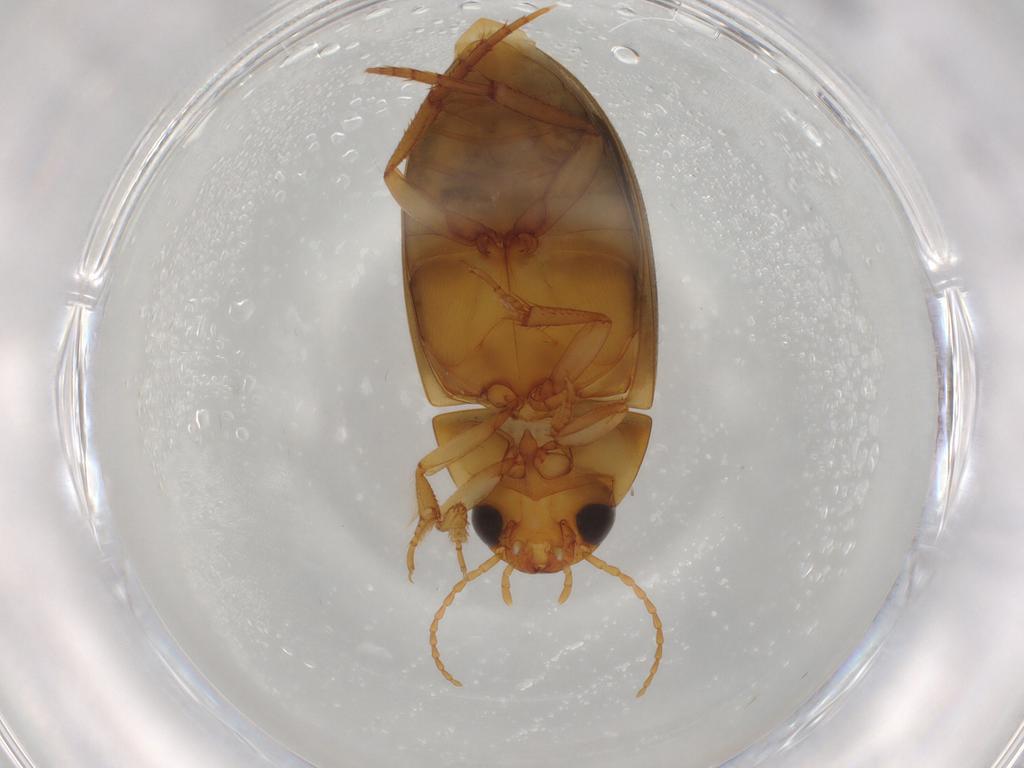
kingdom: Animalia
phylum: Arthropoda
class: Insecta
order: Coleoptera
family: Dytiscidae
